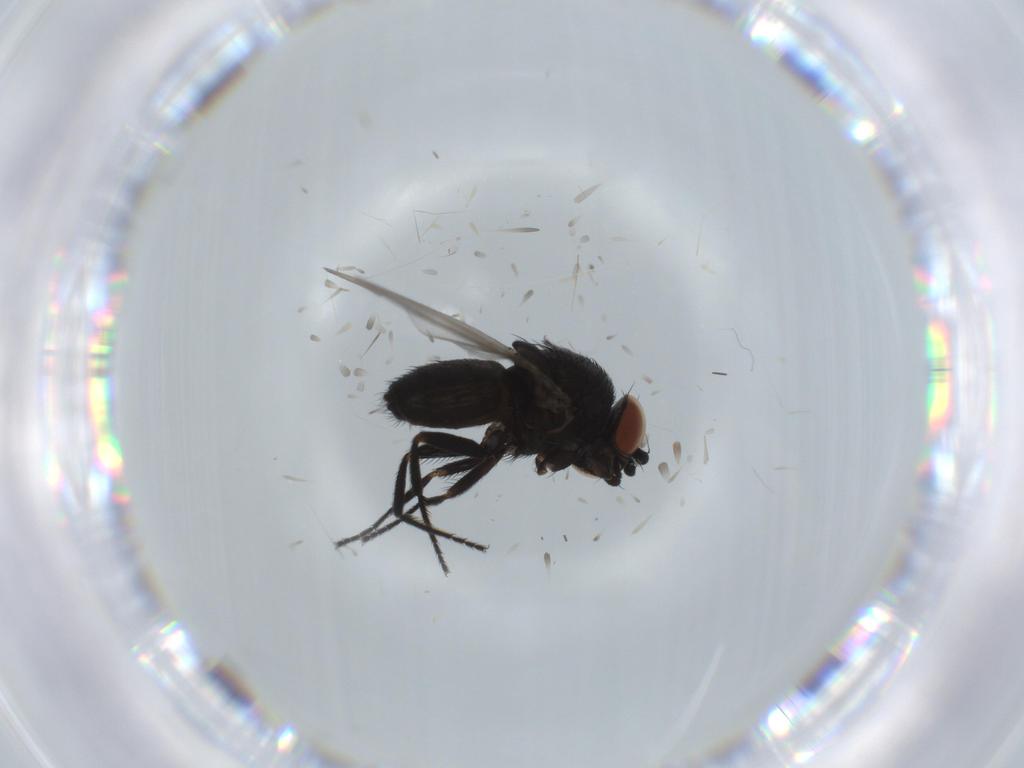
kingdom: Animalia
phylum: Arthropoda
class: Insecta
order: Diptera
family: Milichiidae
